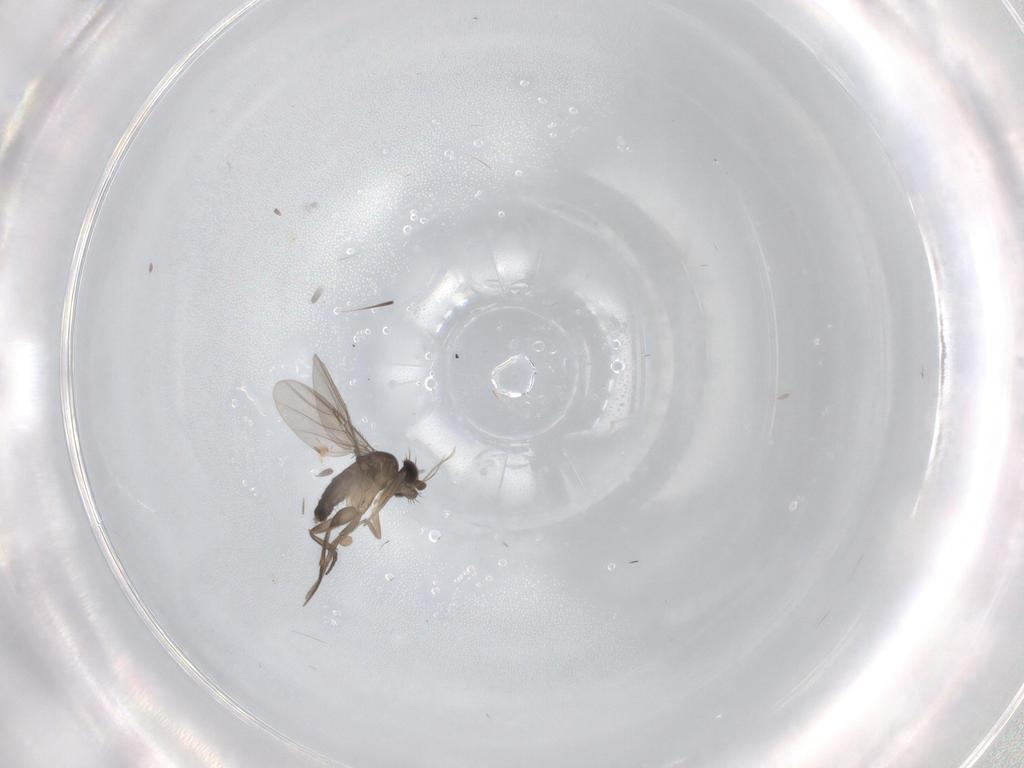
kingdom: Animalia
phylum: Arthropoda
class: Insecta
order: Diptera
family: Phoridae
